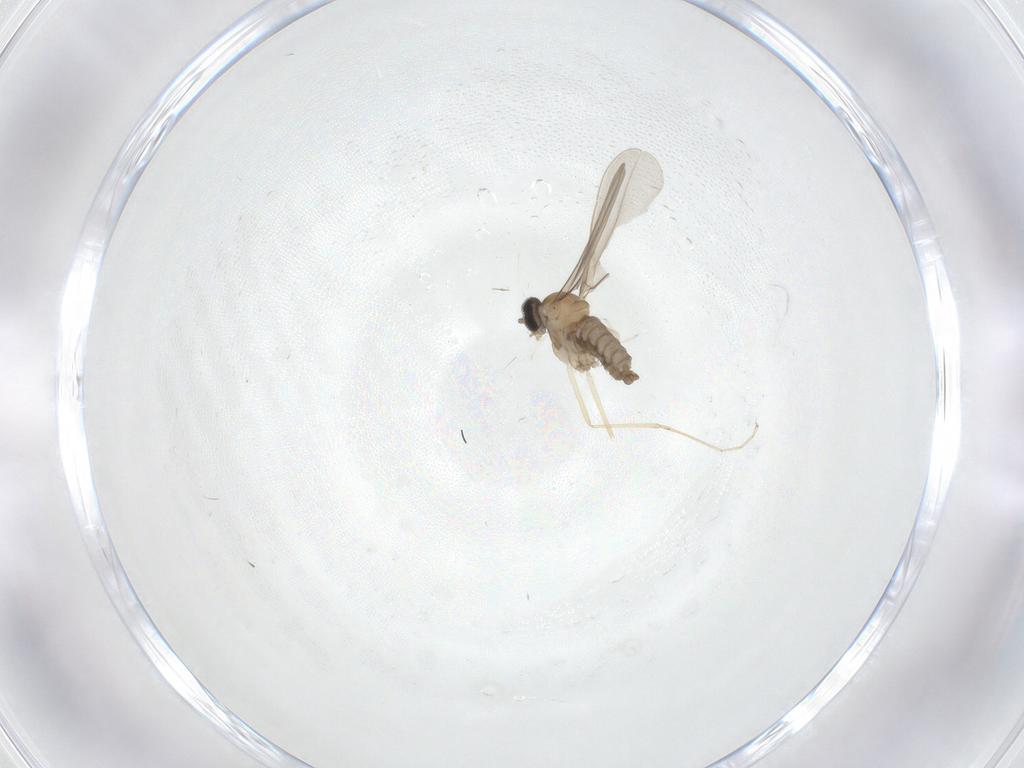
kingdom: Animalia
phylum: Arthropoda
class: Insecta
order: Diptera
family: Cecidomyiidae
